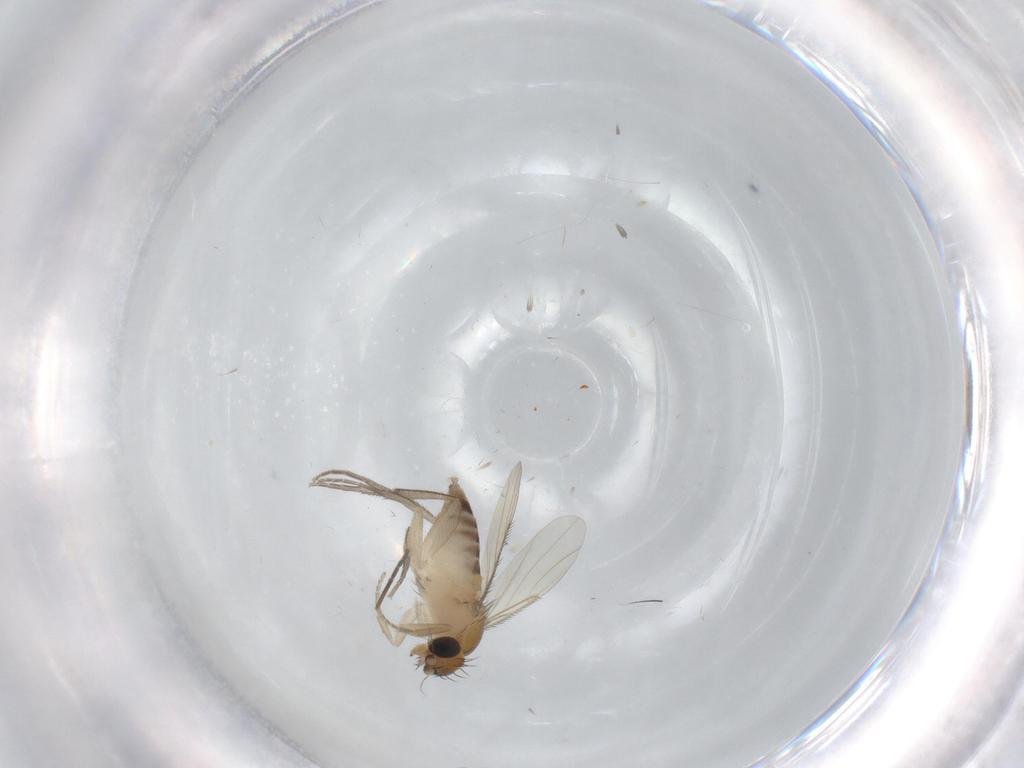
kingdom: Animalia
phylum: Arthropoda
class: Insecta
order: Diptera
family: Phoridae
